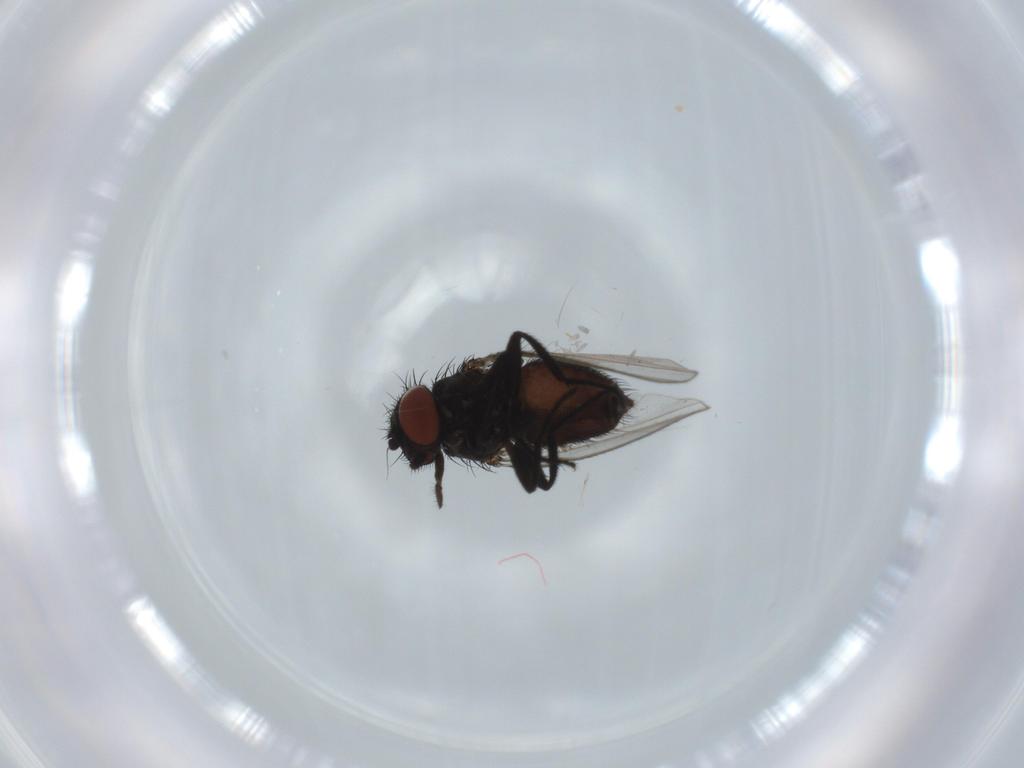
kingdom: Animalia
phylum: Arthropoda
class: Insecta
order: Diptera
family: Milichiidae
